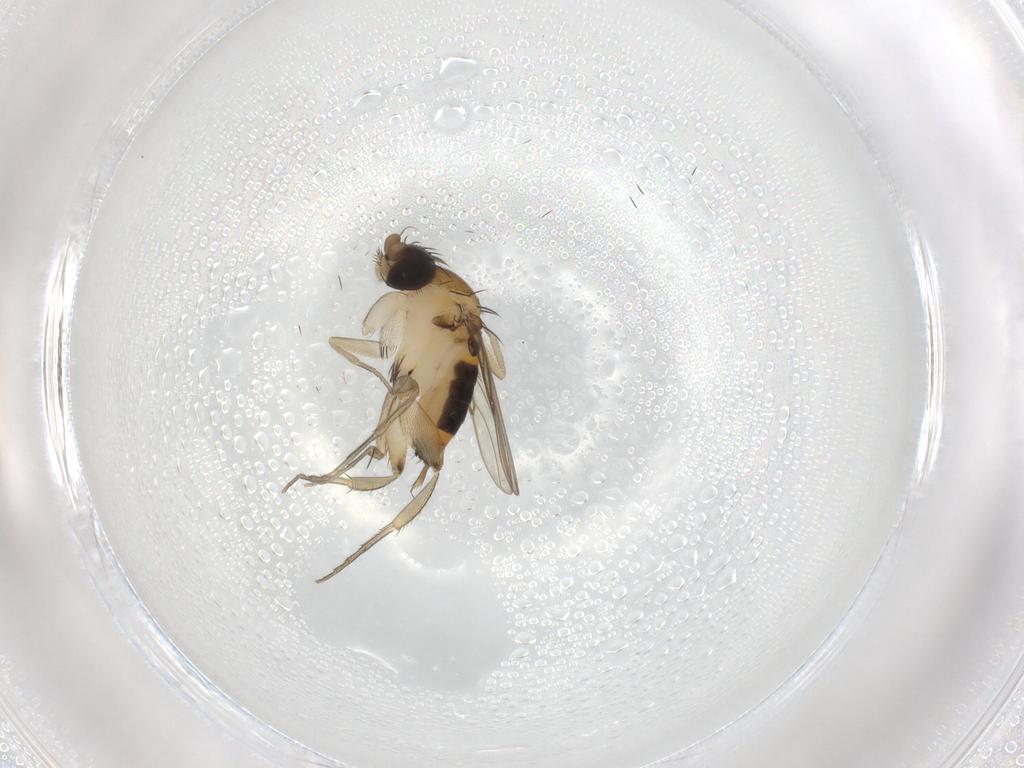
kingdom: Animalia
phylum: Arthropoda
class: Insecta
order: Diptera
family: Phoridae
